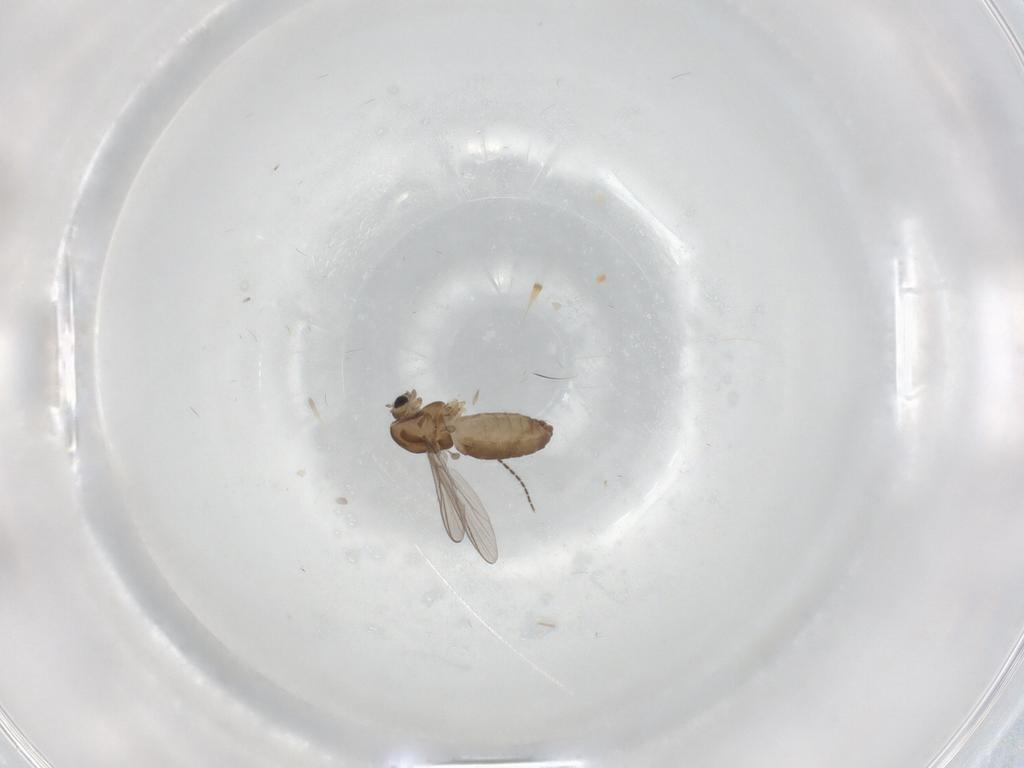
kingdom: Animalia
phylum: Arthropoda
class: Insecta
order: Diptera
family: Chironomidae
